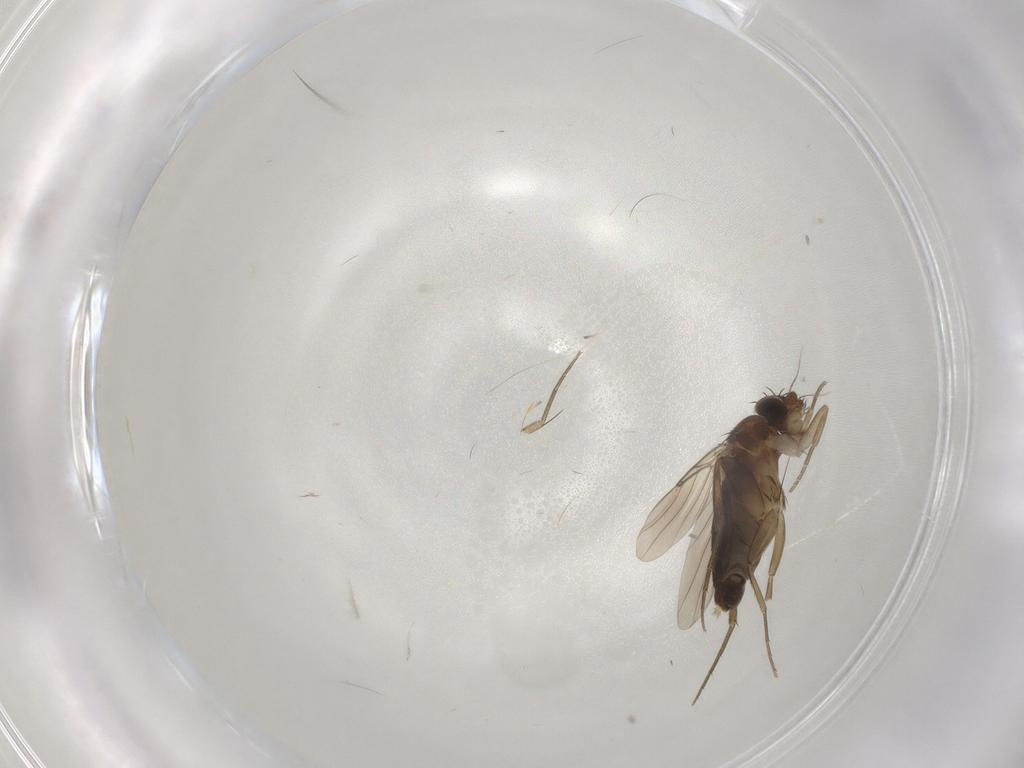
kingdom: Animalia
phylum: Arthropoda
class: Insecta
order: Diptera
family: Phoridae
